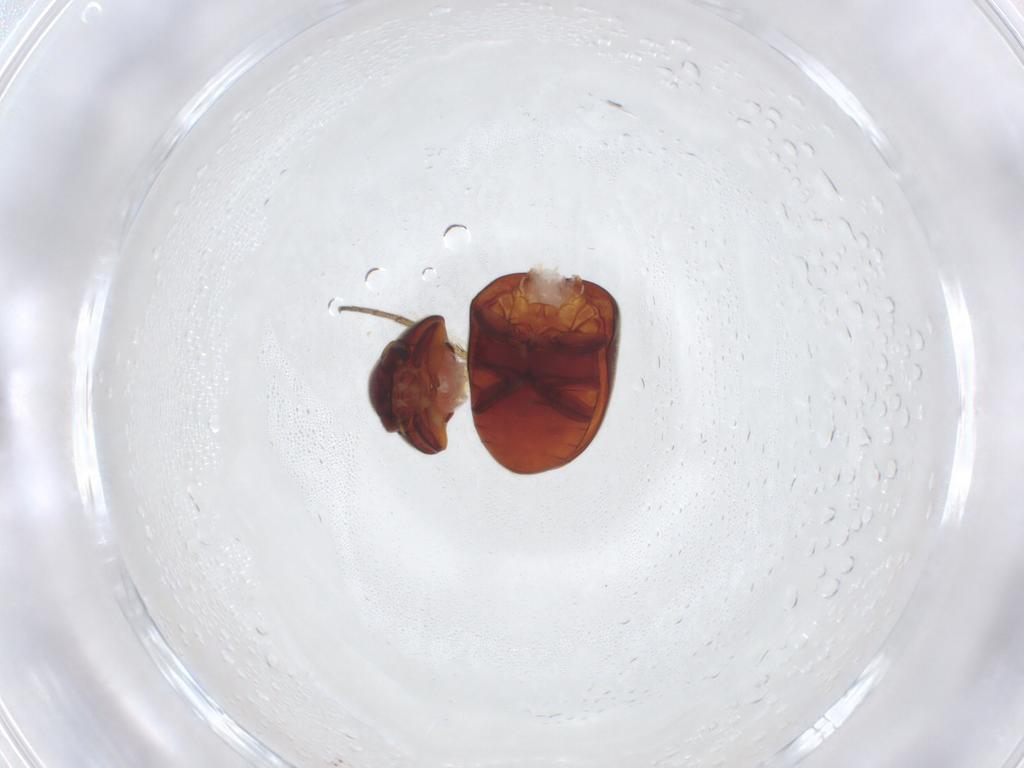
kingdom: Animalia
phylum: Arthropoda
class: Insecta
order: Coleoptera
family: Ptinidae
